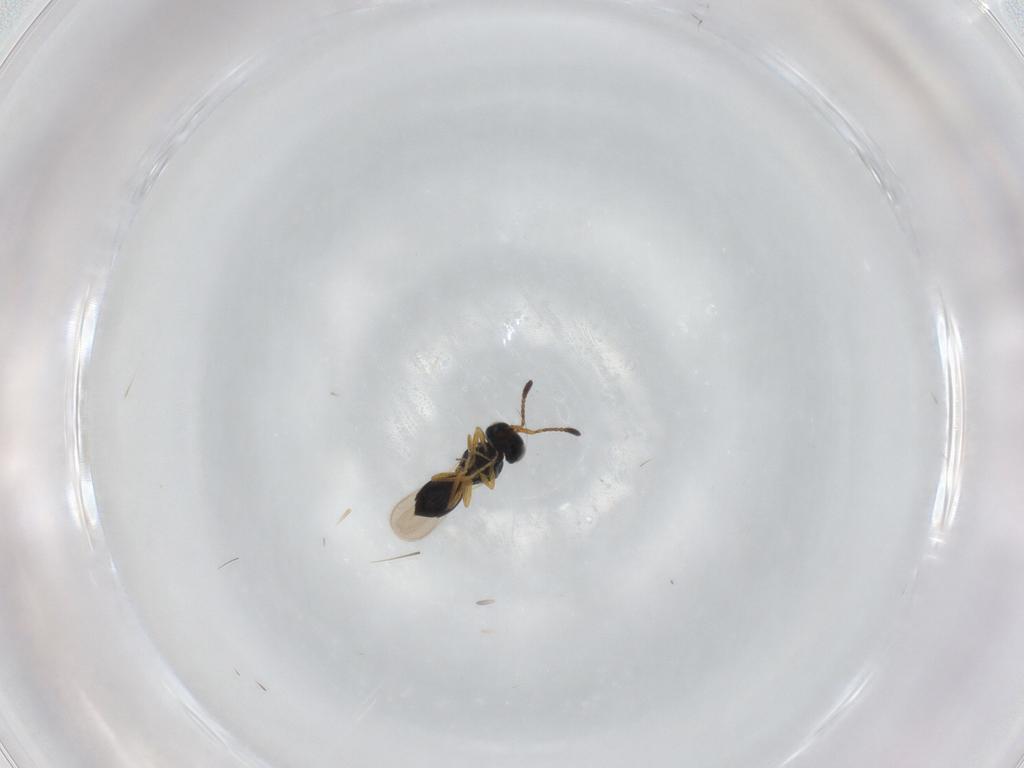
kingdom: Animalia
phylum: Arthropoda
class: Insecta
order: Hymenoptera
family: Scelionidae
